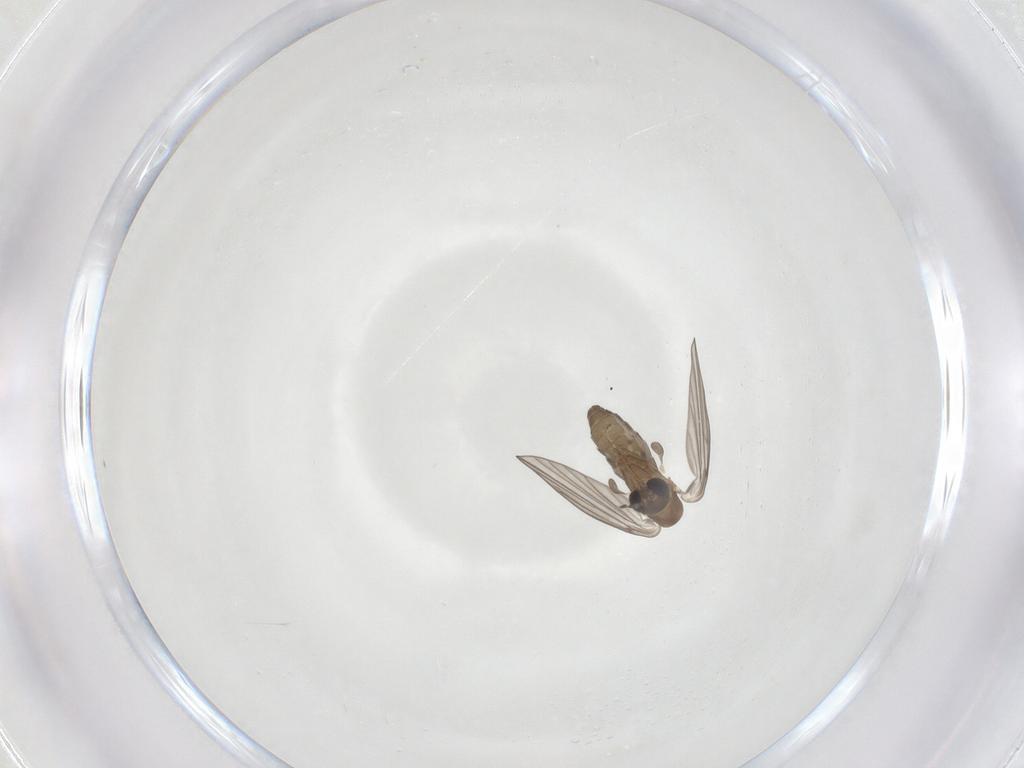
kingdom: Animalia
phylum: Arthropoda
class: Insecta
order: Diptera
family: Psychodidae
